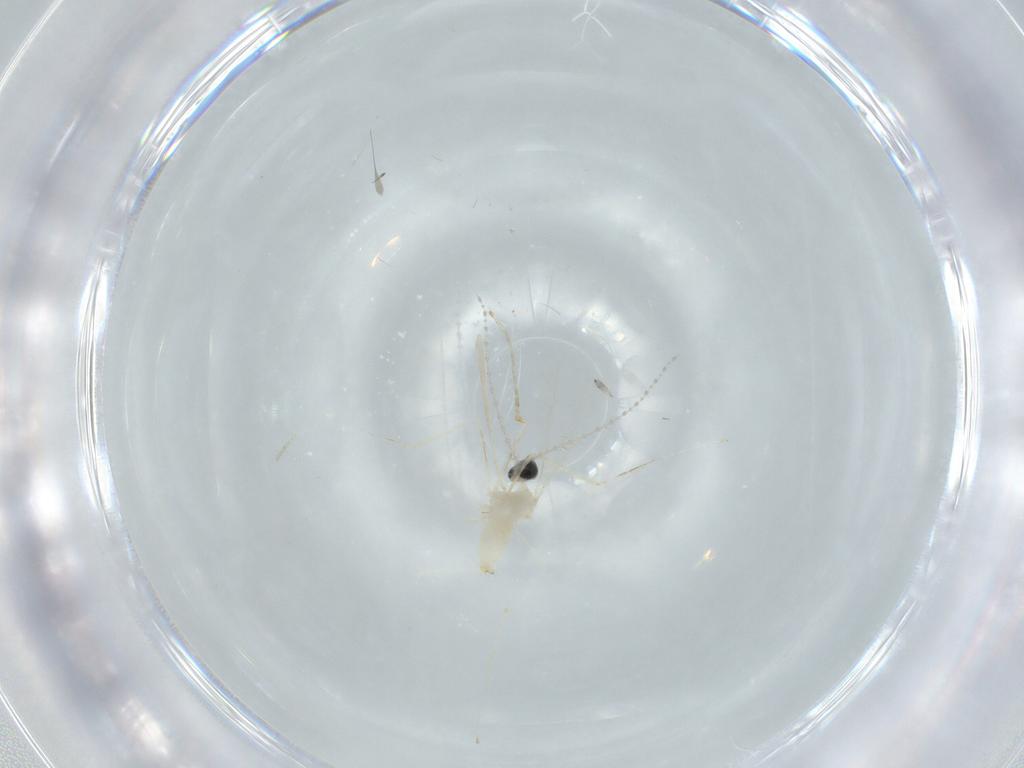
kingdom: Animalia
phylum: Arthropoda
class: Insecta
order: Diptera
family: Cecidomyiidae
